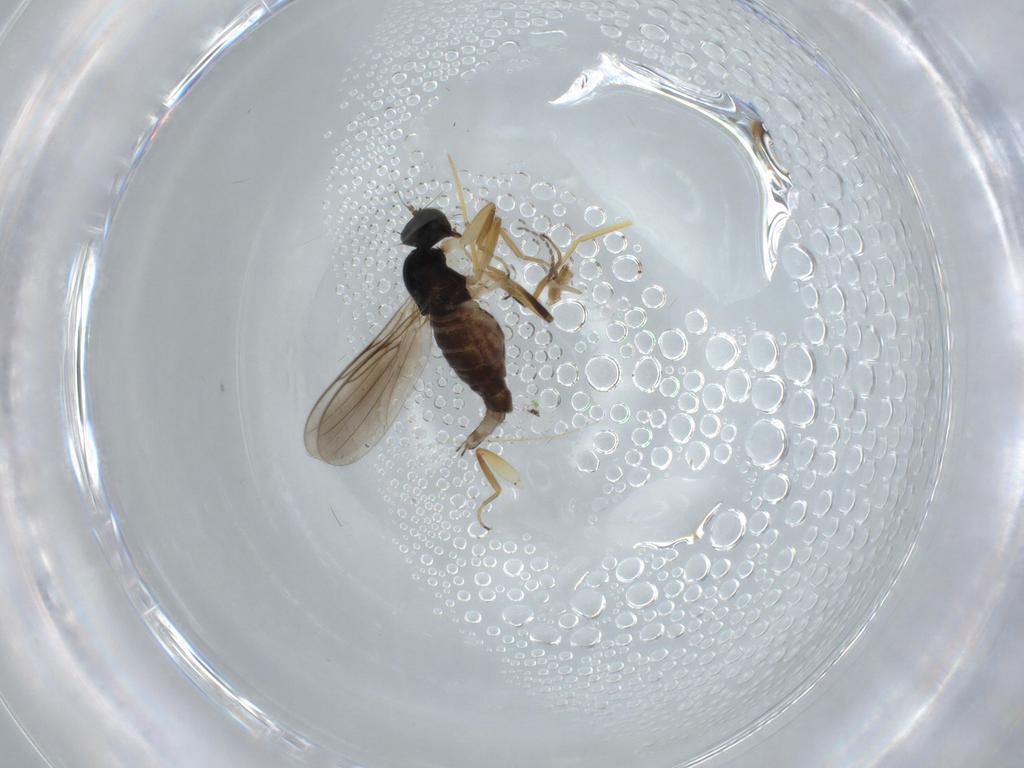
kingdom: Animalia
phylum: Arthropoda
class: Insecta
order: Diptera
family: Hybotidae
